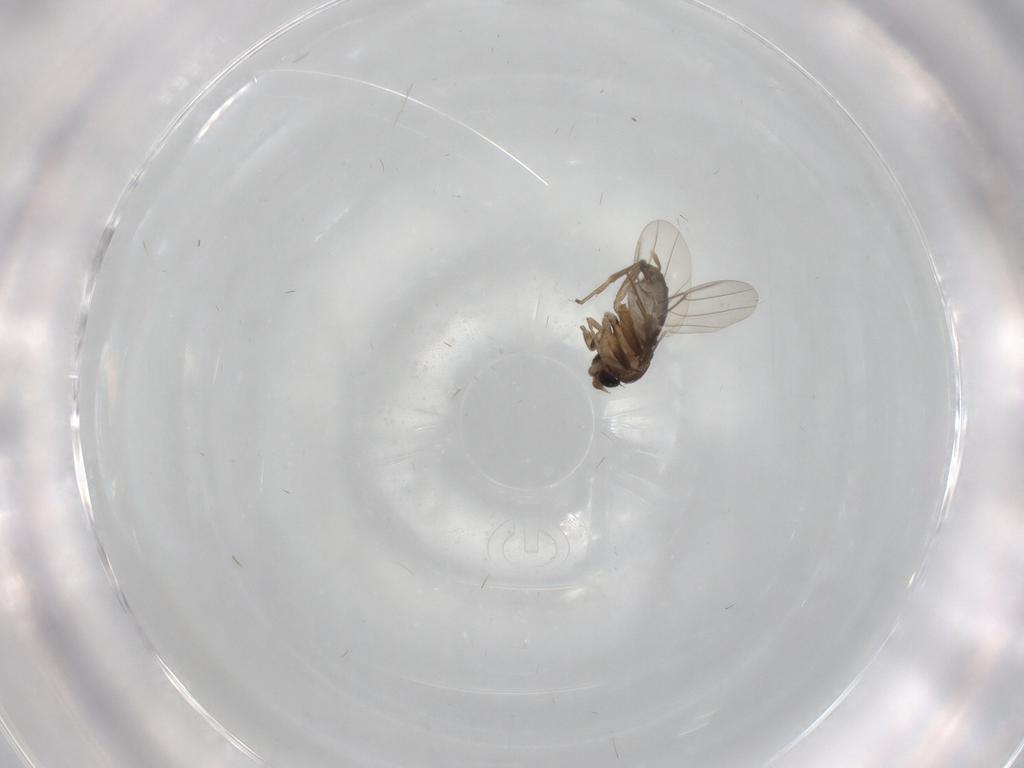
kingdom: Animalia
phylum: Arthropoda
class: Insecta
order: Diptera
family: Phoridae
